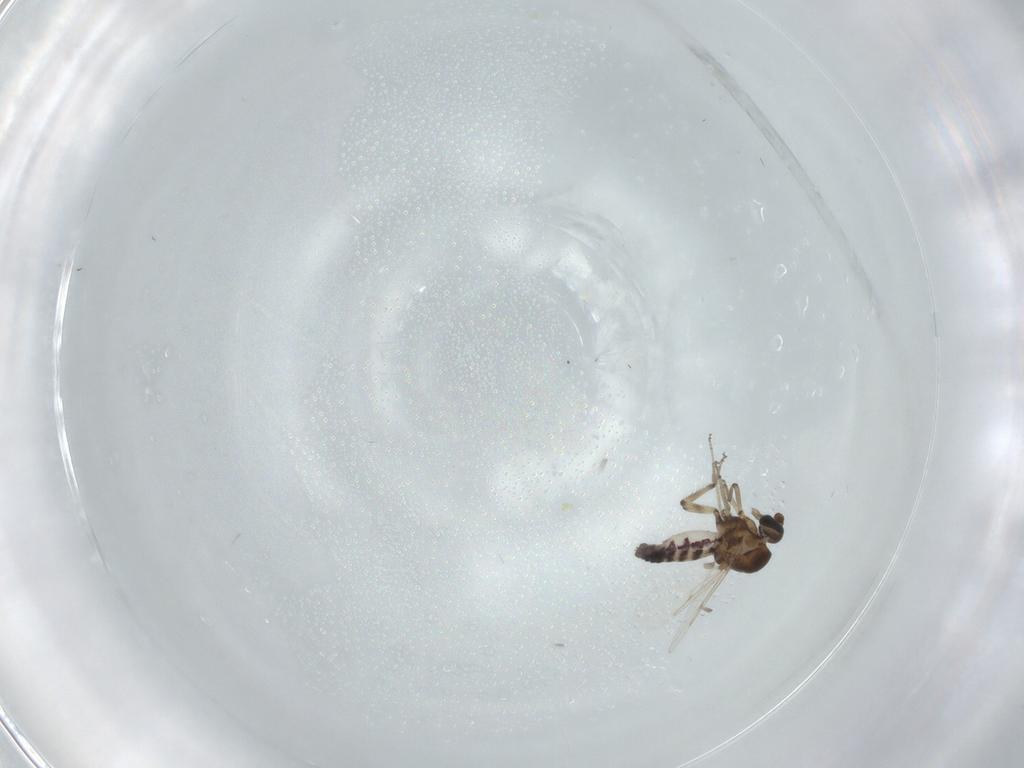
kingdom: Animalia
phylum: Arthropoda
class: Insecta
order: Diptera
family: Ceratopogonidae
